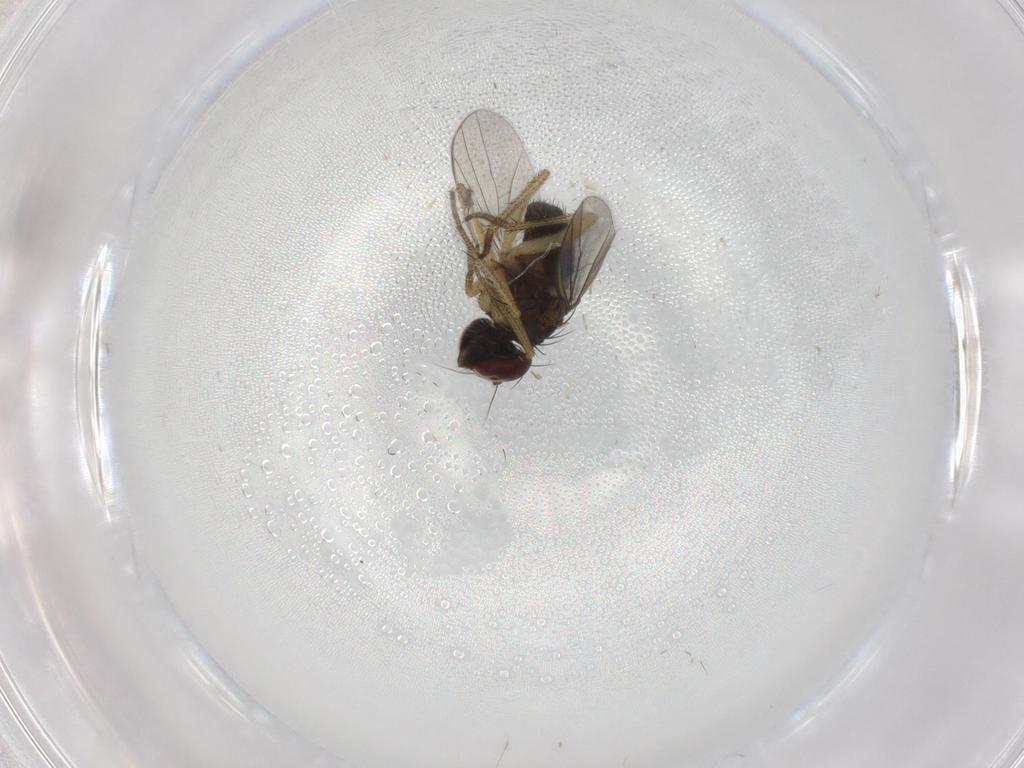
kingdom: Animalia
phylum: Arthropoda
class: Insecta
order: Diptera
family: Dolichopodidae
